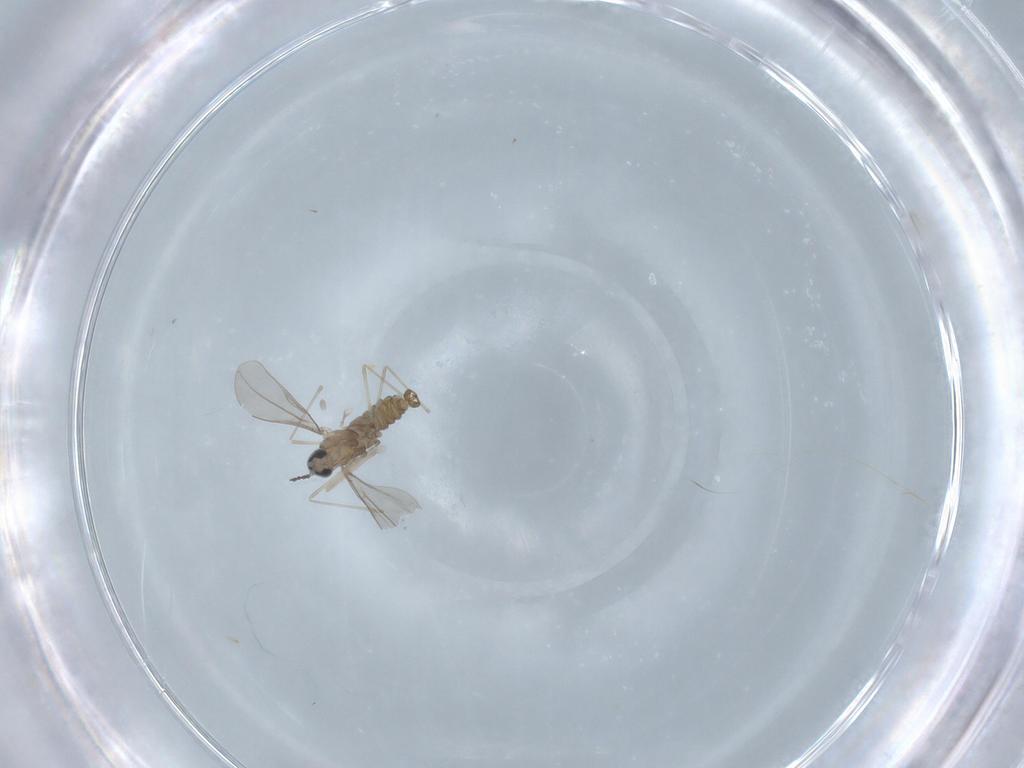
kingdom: Animalia
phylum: Arthropoda
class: Insecta
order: Diptera
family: Cecidomyiidae
